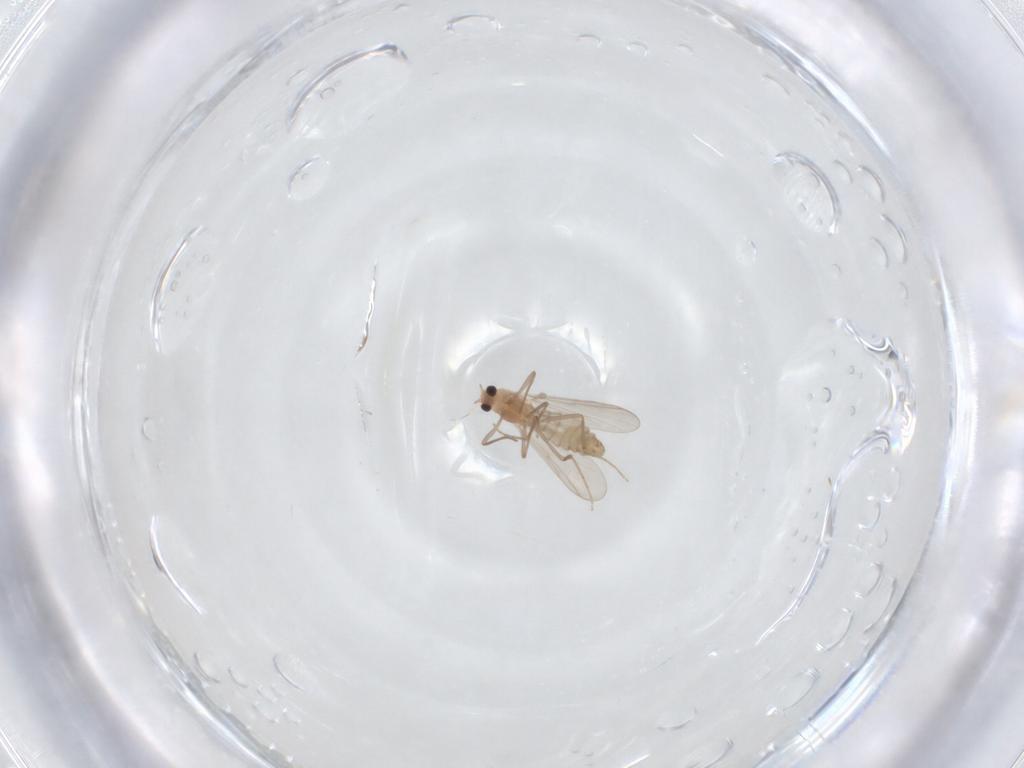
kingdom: Animalia
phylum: Arthropoda
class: Insecta
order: Diptera
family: Chironomidae
